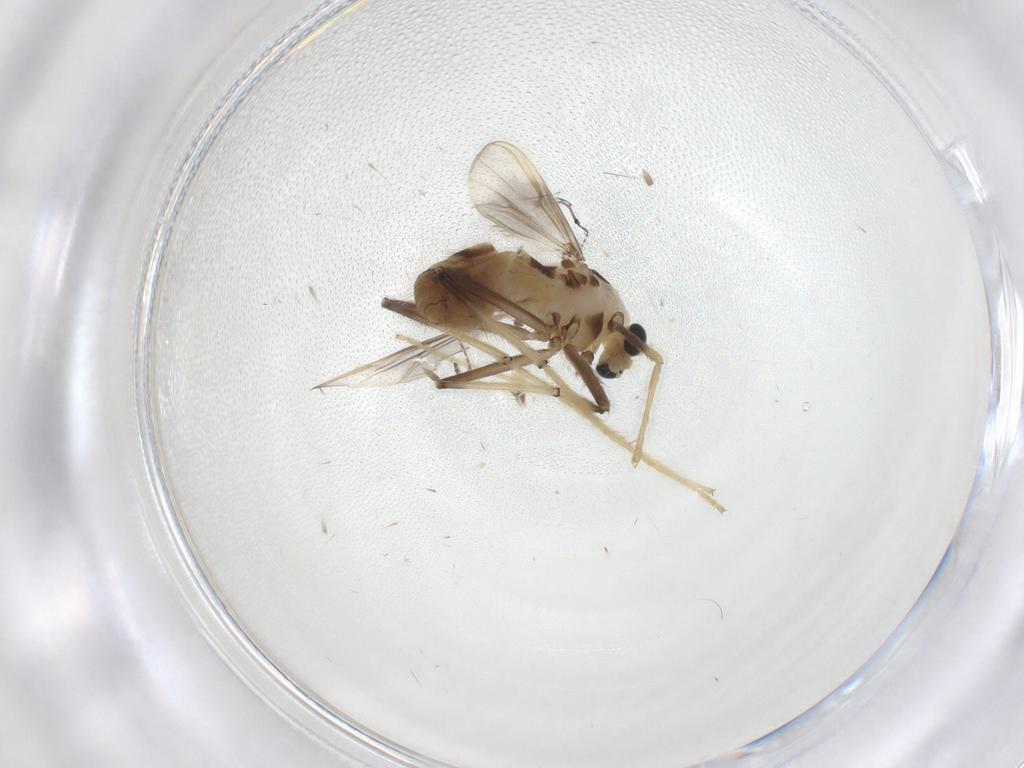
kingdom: Animalia
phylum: Arthropoda
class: Insecta
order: Diptera
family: Chironomidae
